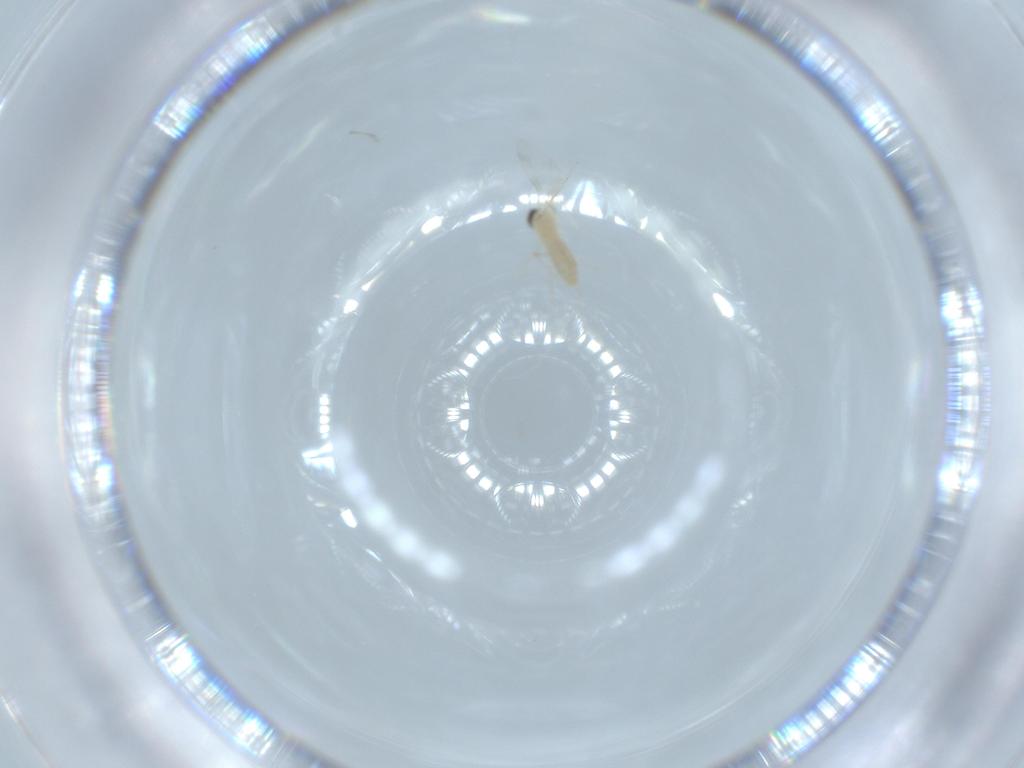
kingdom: Animalia
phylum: Arthropoda
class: Insecta
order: Diptera
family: Cecidomyiidae
